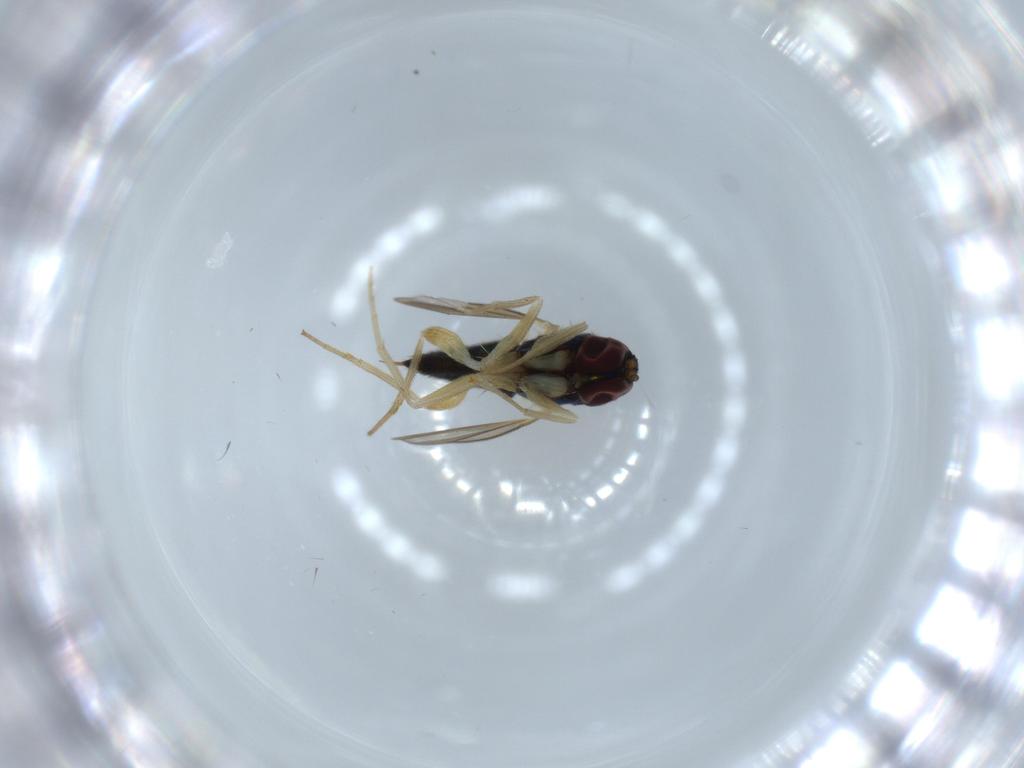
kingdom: Animalia
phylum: Arthropoda
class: Insecta
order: Diptera
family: Dolichopodidae
